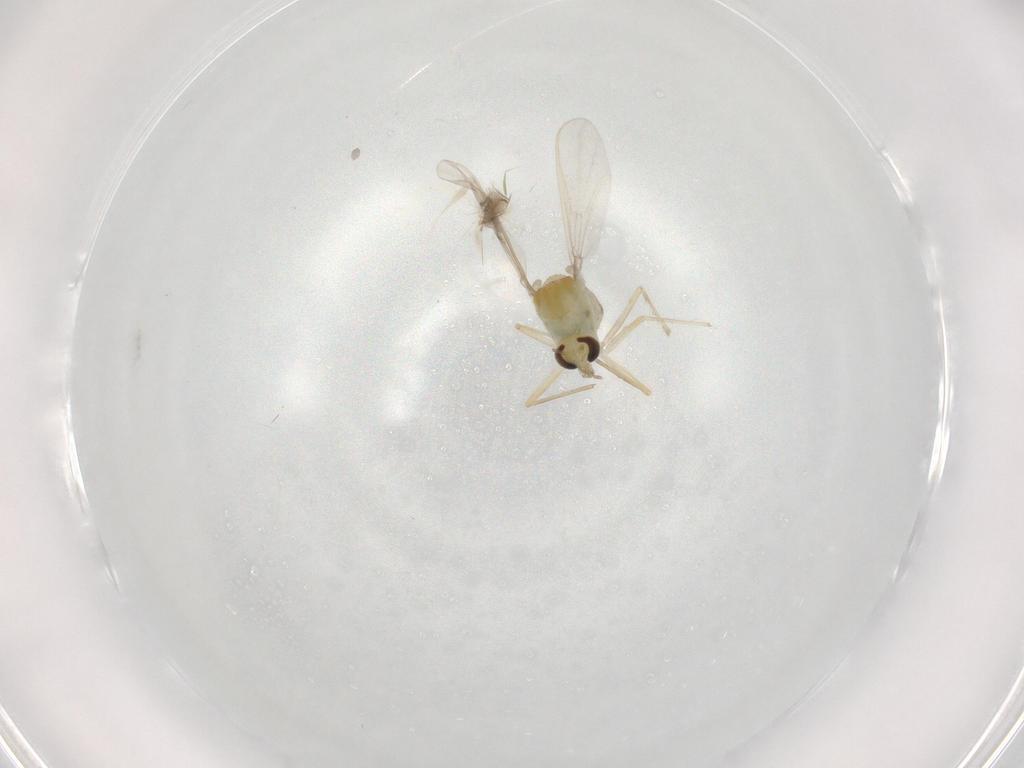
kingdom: Animalia
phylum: Arthropoda
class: Insecta
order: Diptera
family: Chironomidae
